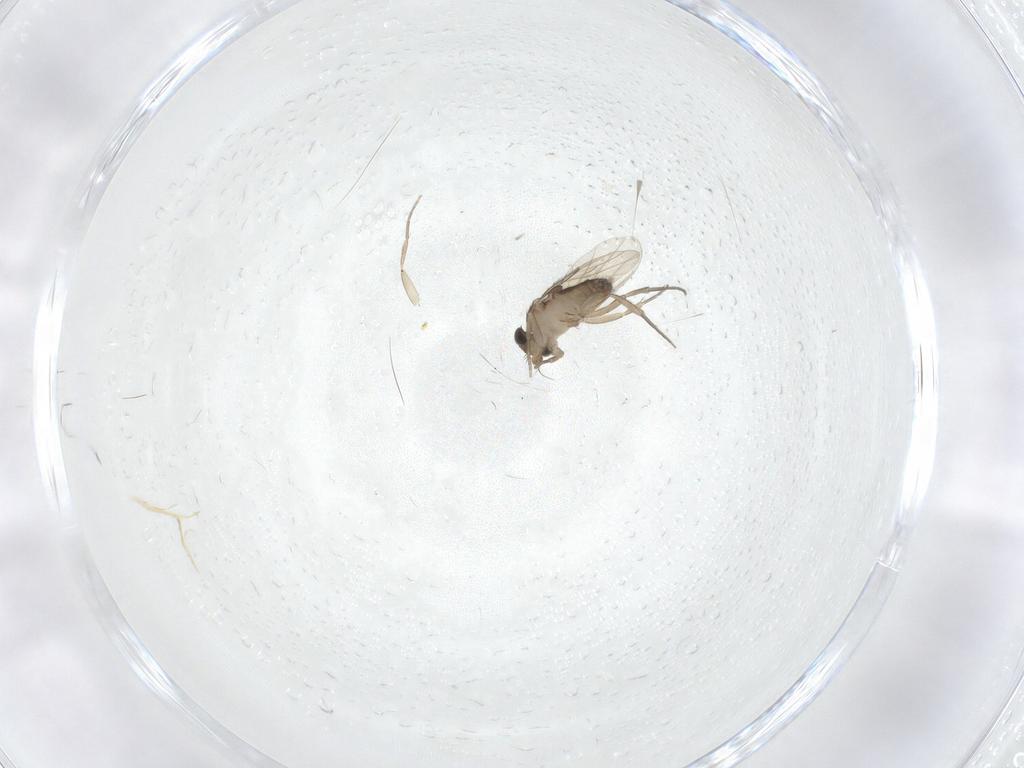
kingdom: Animalia
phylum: Arthropoda
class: Insecta
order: Diptera
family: Phoridae
